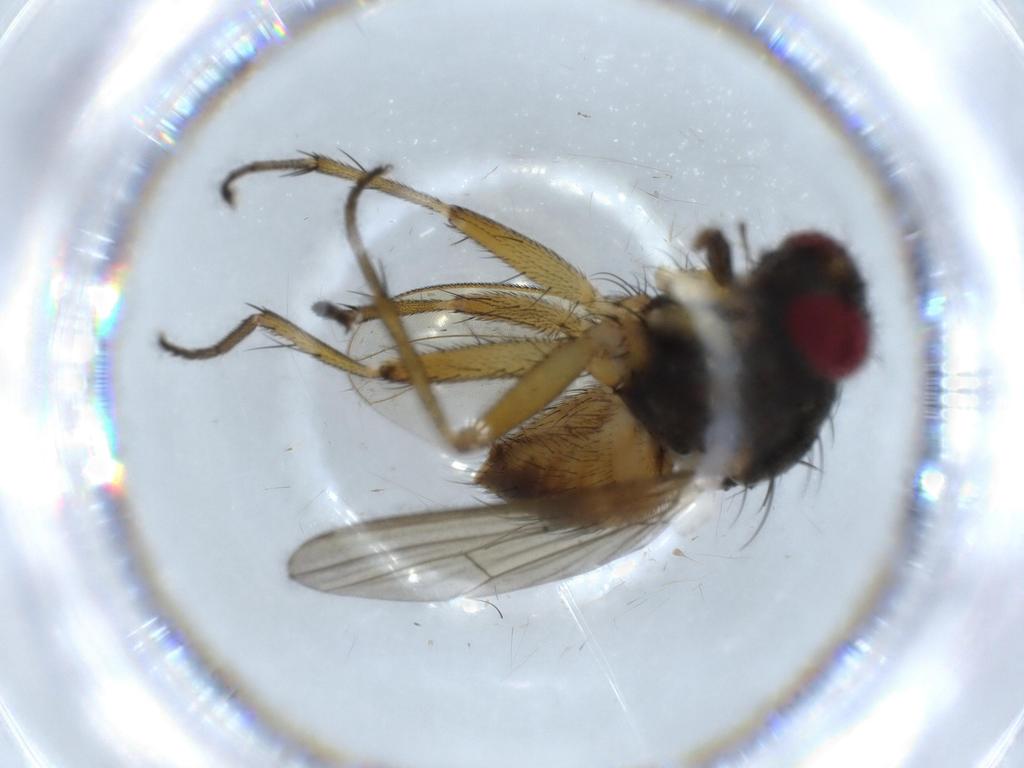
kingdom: Animalia
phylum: Arthropoda
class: Insecta
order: Diptera
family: Muscidae
